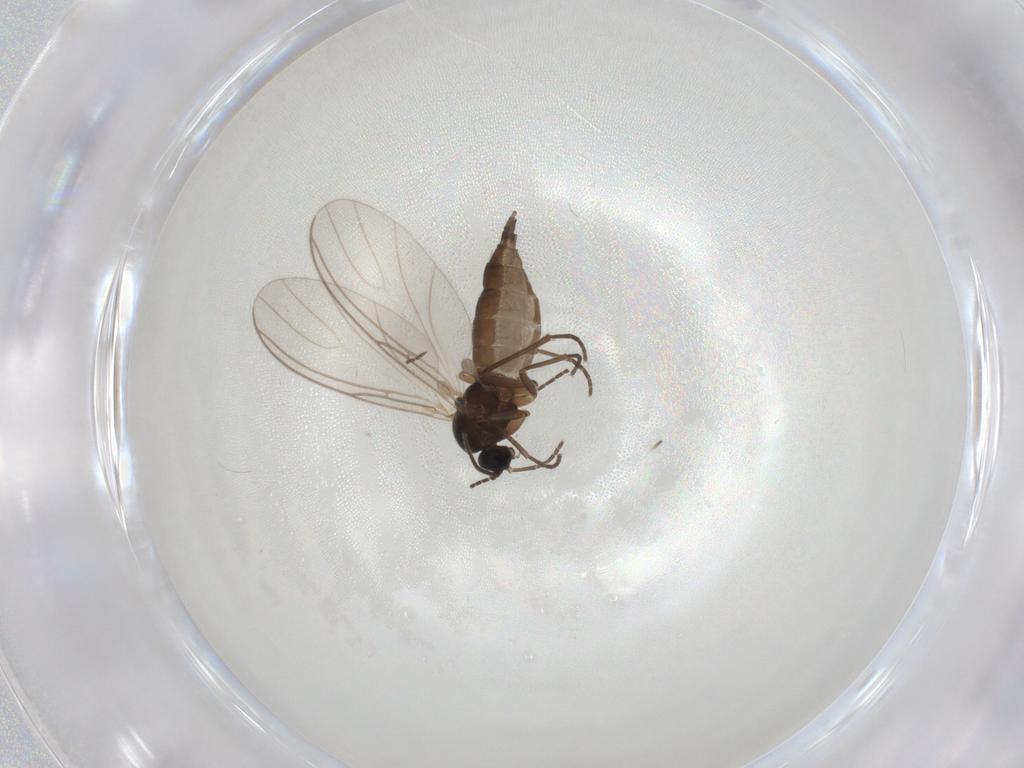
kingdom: Animalia
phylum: Arthropoda
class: Insecta
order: Diptera
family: Sciaridae
